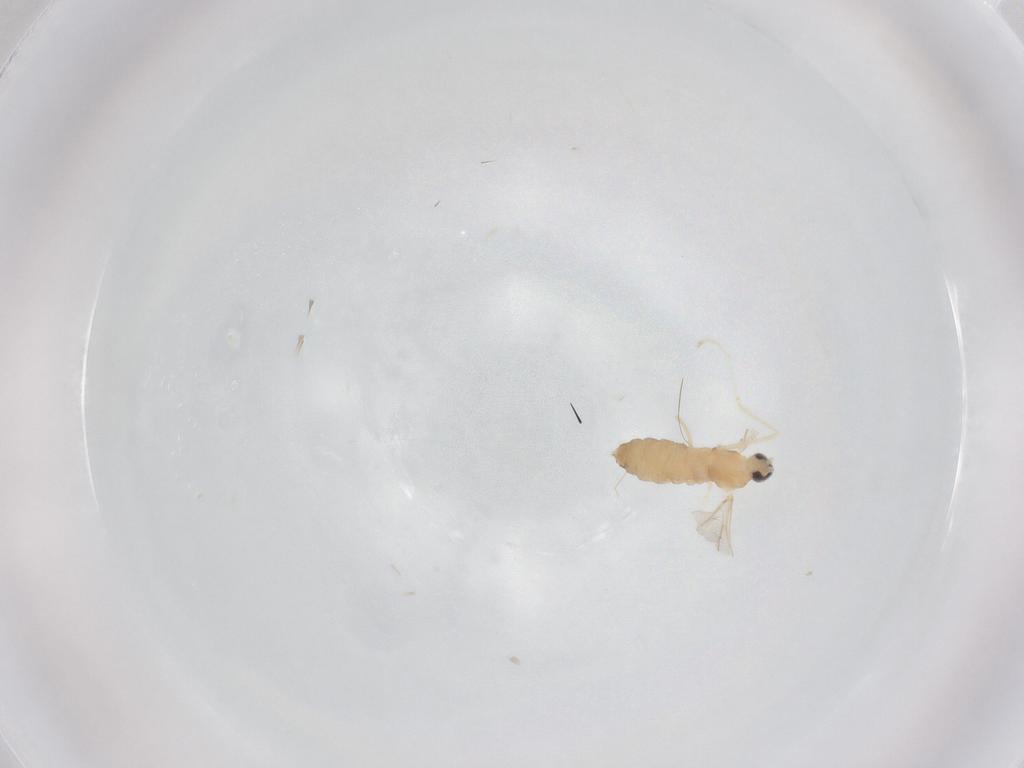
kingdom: Animalia
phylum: Arthropoda
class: Insecta
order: Diptera
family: Cecidomyiidae
